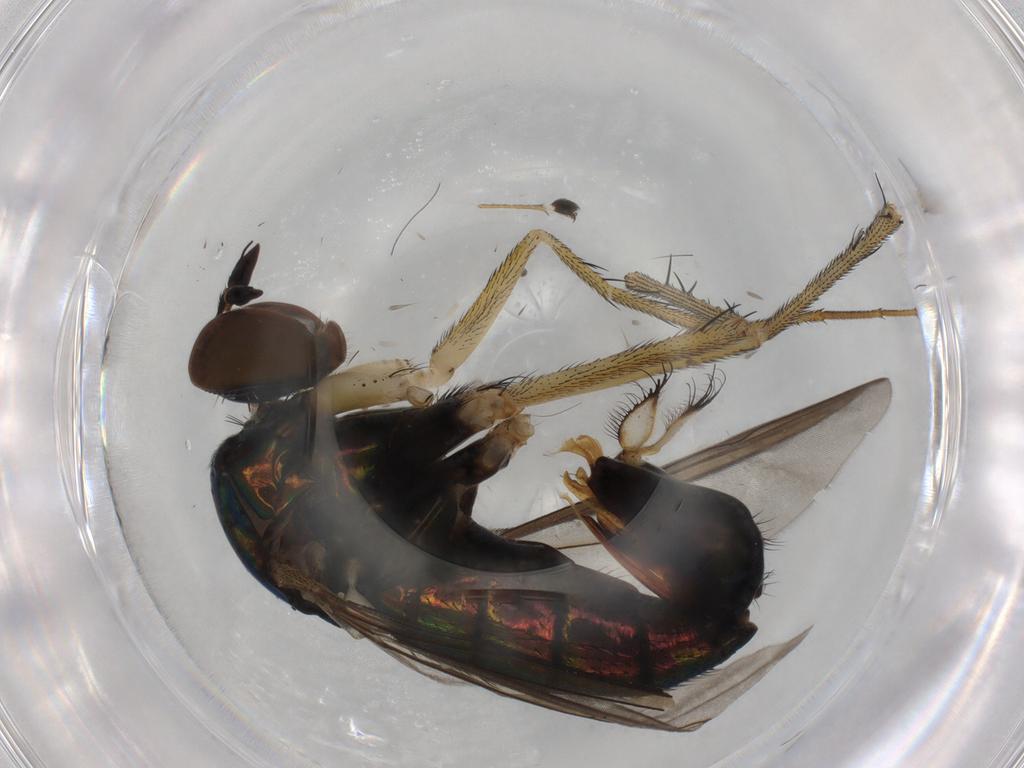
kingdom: Animalia
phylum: Arthropoda
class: Insecta
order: Diptera
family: Dolichopodidae
